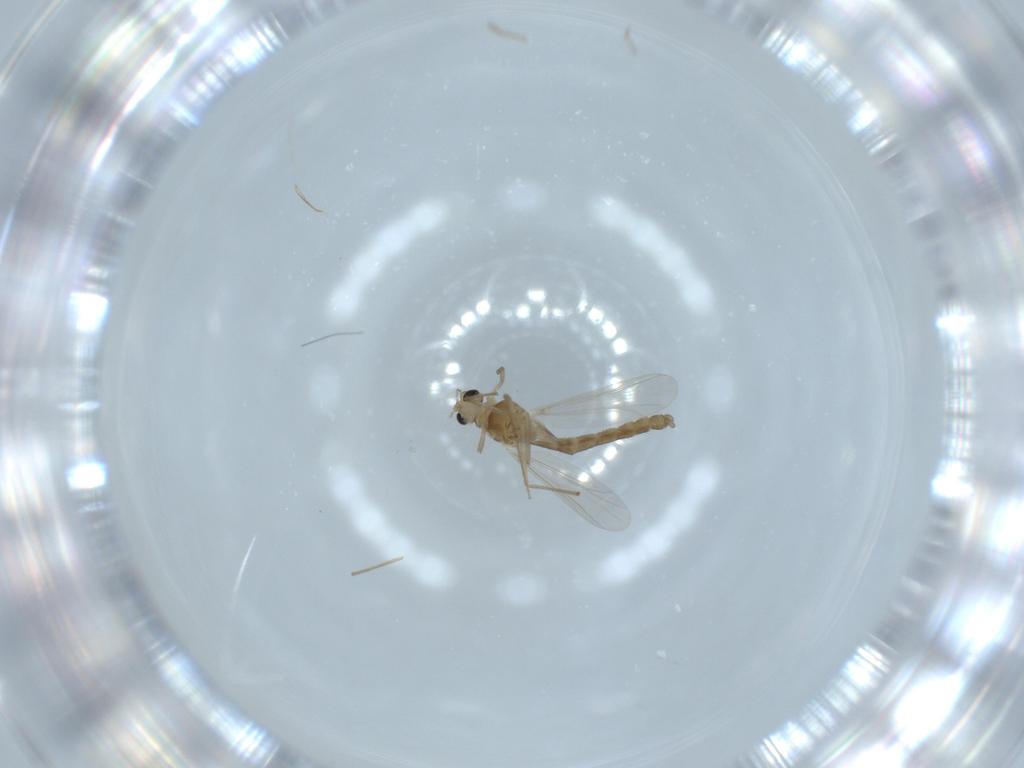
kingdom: Animalia
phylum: Arthropoda
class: Insecta
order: Diptera
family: Chironomidae
